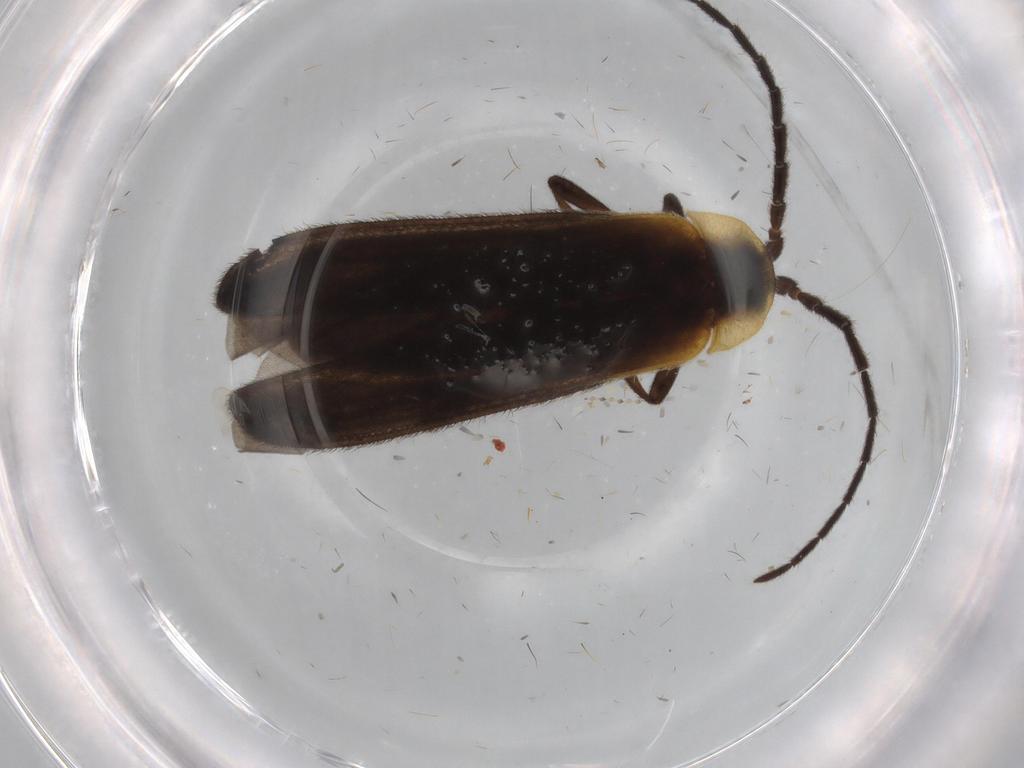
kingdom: Animalia
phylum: Arthropoda
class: Insecta
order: Coleoptera
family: Lycidae
